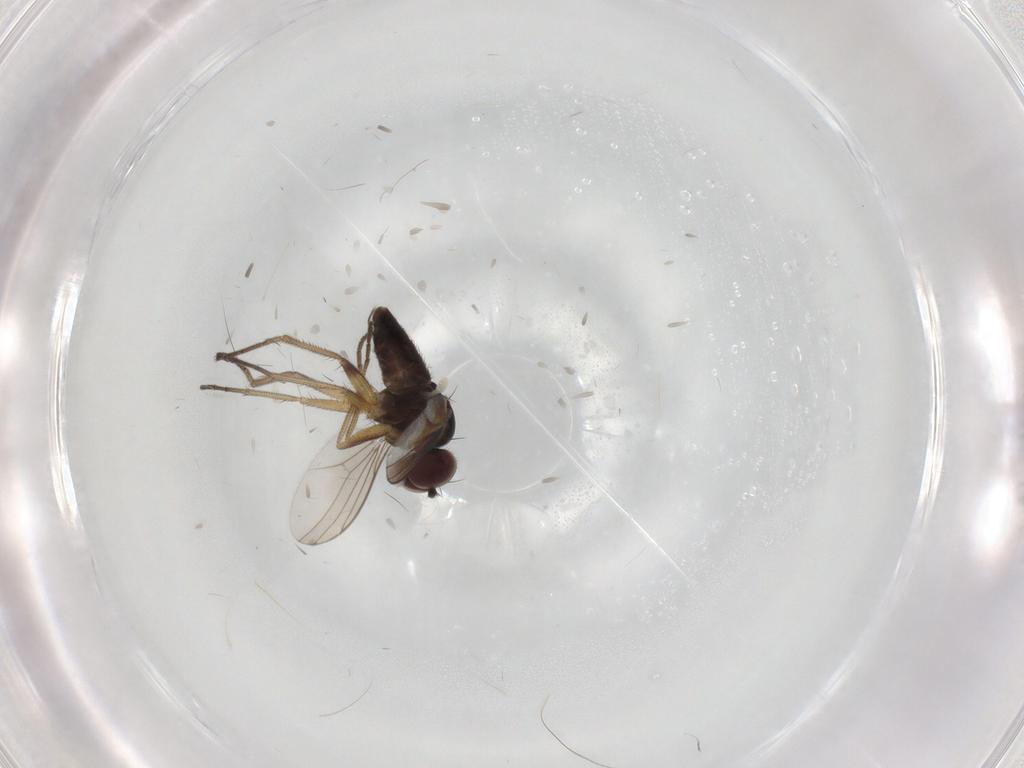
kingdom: Animalia
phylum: Arthropoda
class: Insecta
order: Diptera
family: Dolichopodidae
